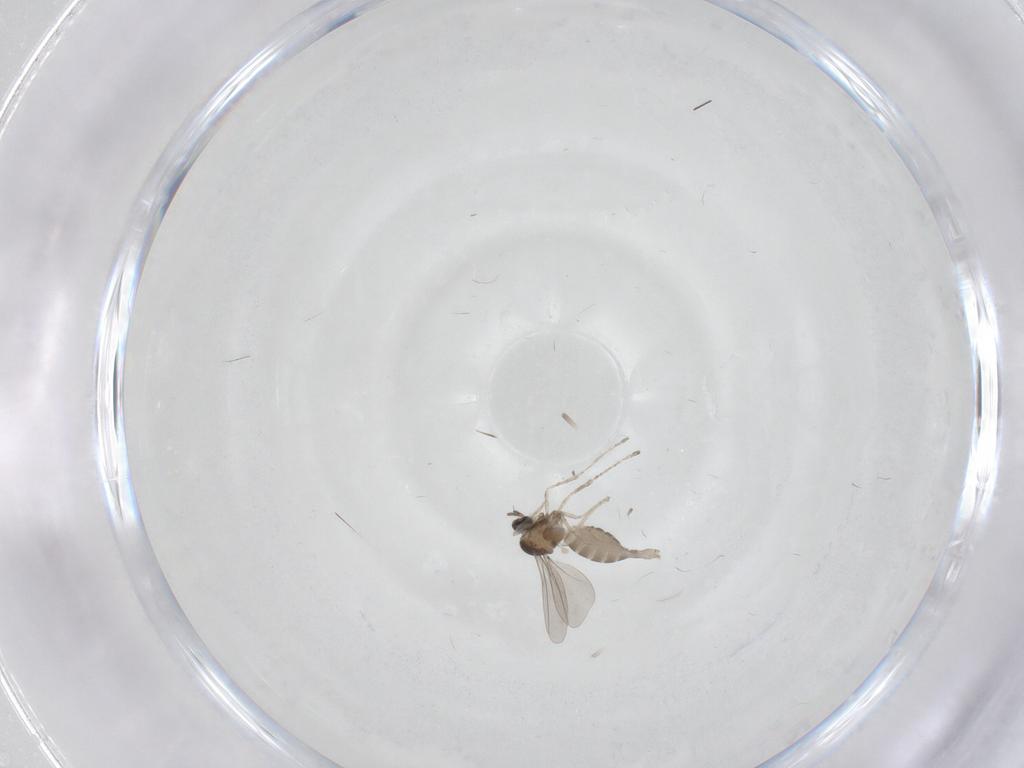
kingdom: Animalia
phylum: Arthropoda
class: Insecta
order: Diptera
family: Cecidomyiidae
